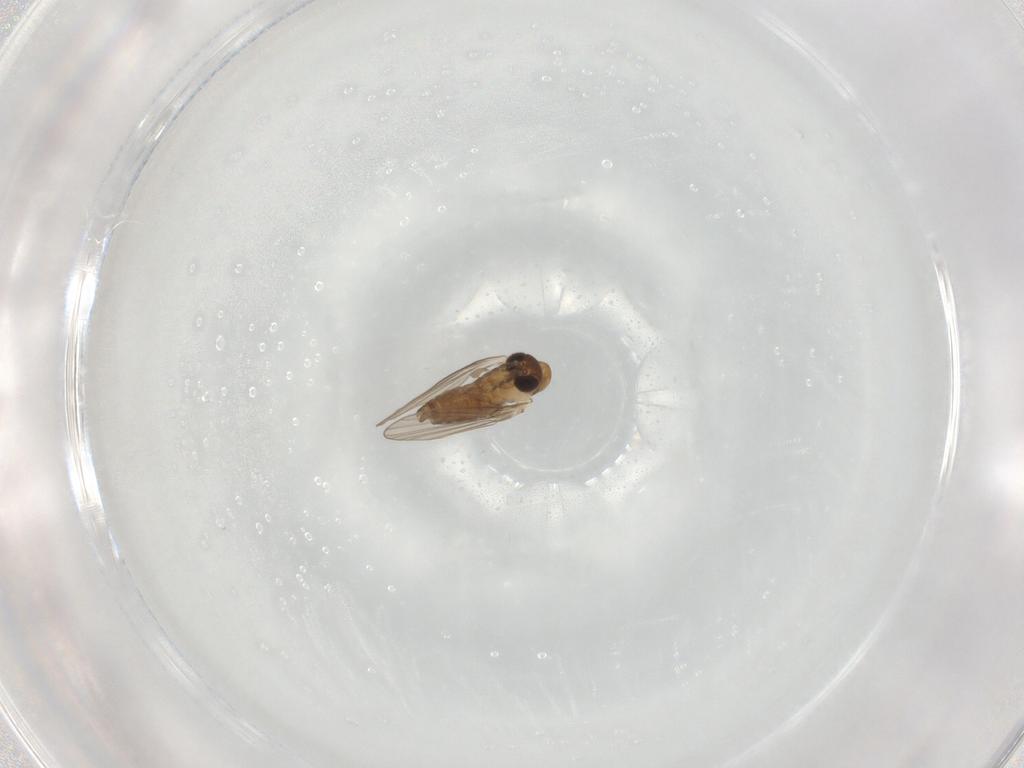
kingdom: Animalia
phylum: Arthropoda
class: Insecta
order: Diptera
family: Psychodidae
